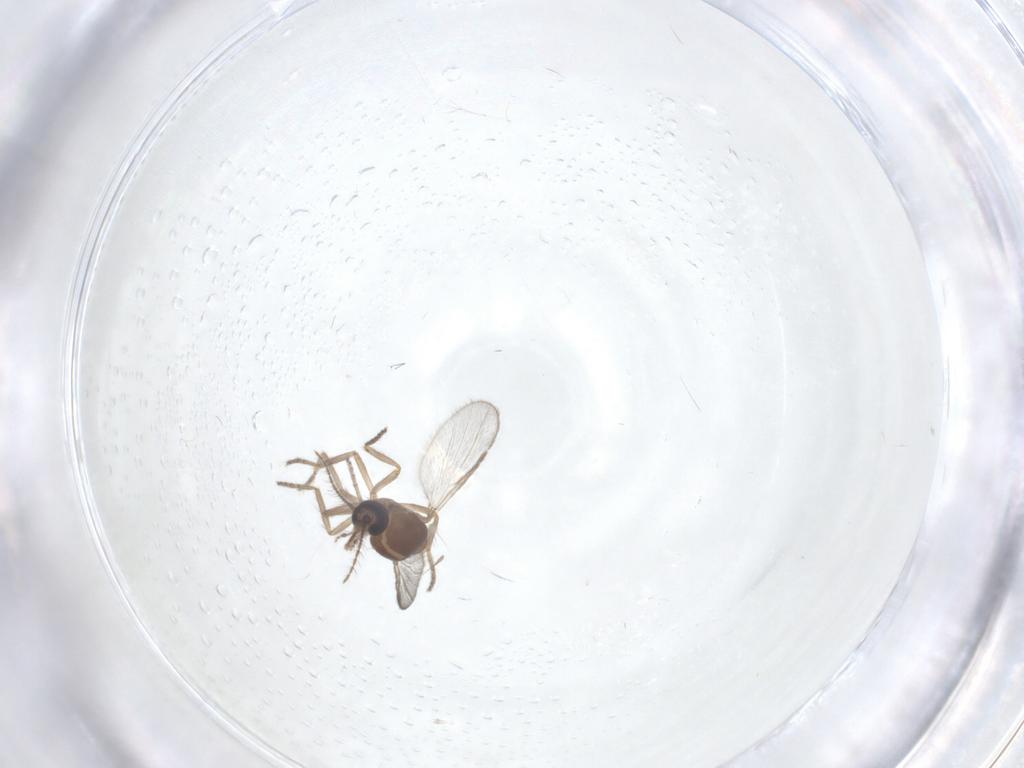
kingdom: Animalia
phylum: Arthropoda
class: Insecta
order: Diptera
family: Ceratopogonidae
